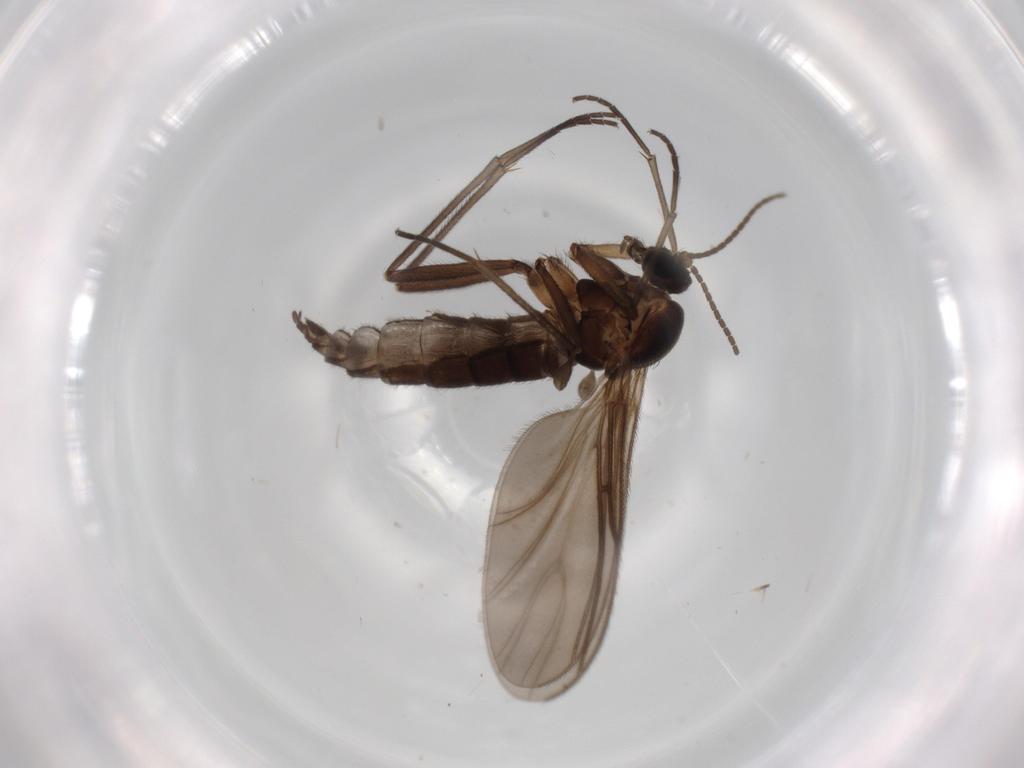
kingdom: Animalia
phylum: Arthropoda
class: Insecta
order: Diptera
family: Sciaridae
